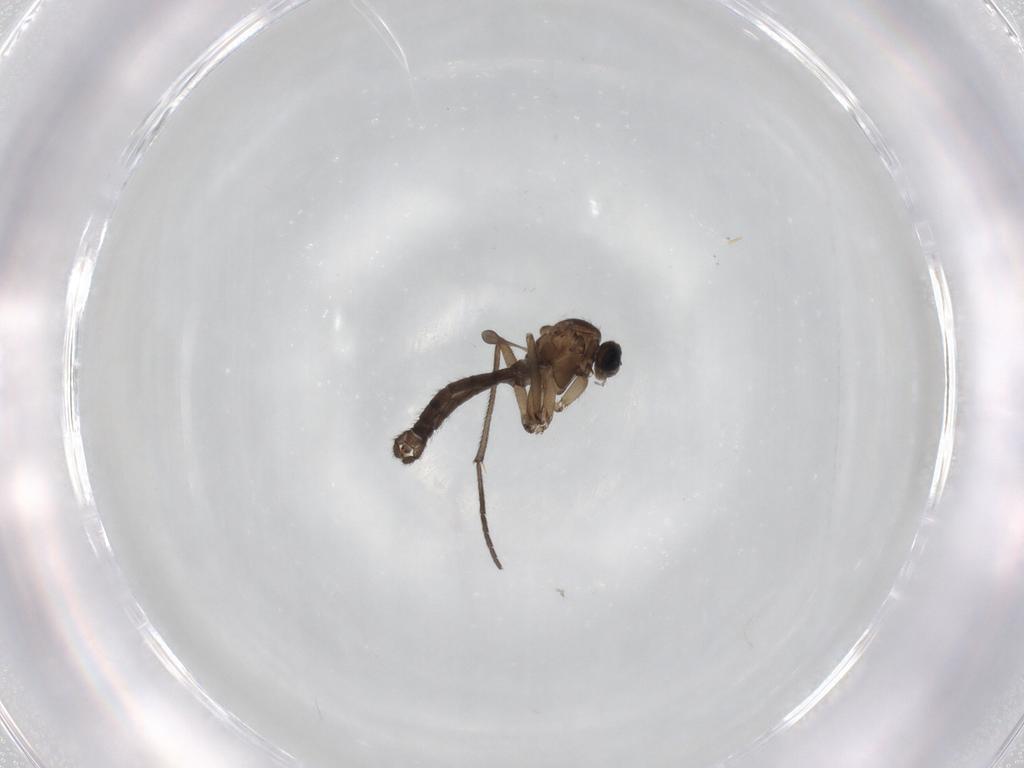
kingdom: Animalia
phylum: Arthropoda
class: Insecta
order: Diptera
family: Sciaridae
